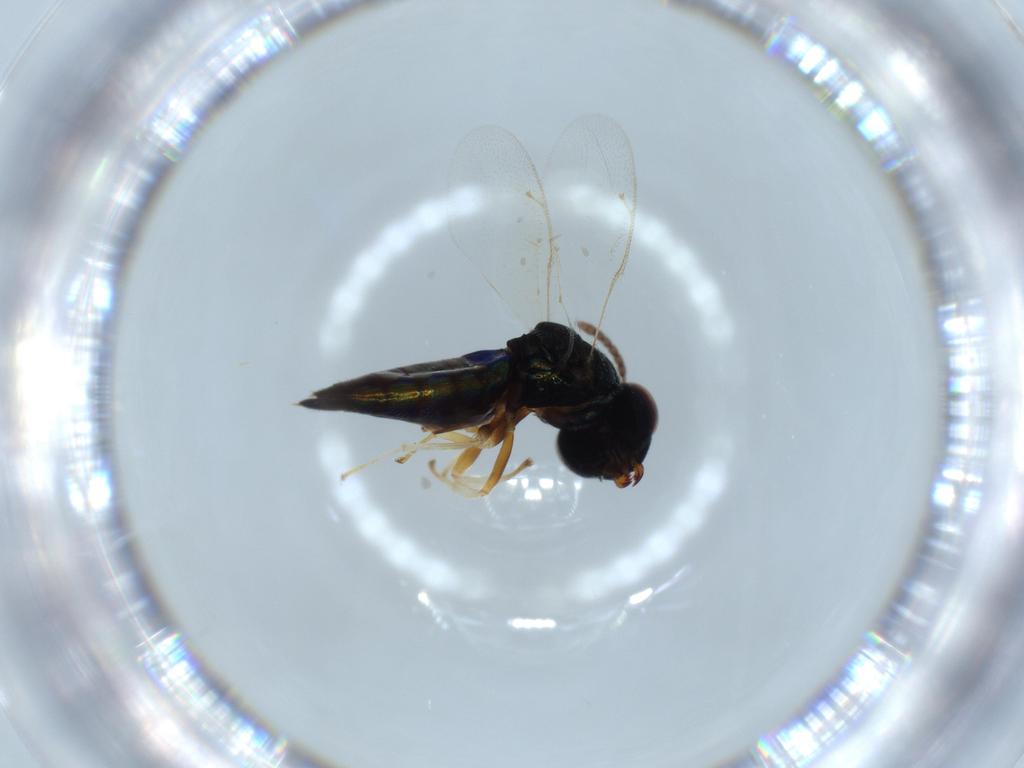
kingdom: Animalia
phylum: Arthropoda
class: Insecta
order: Hymenoptera
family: Pteromalidae
